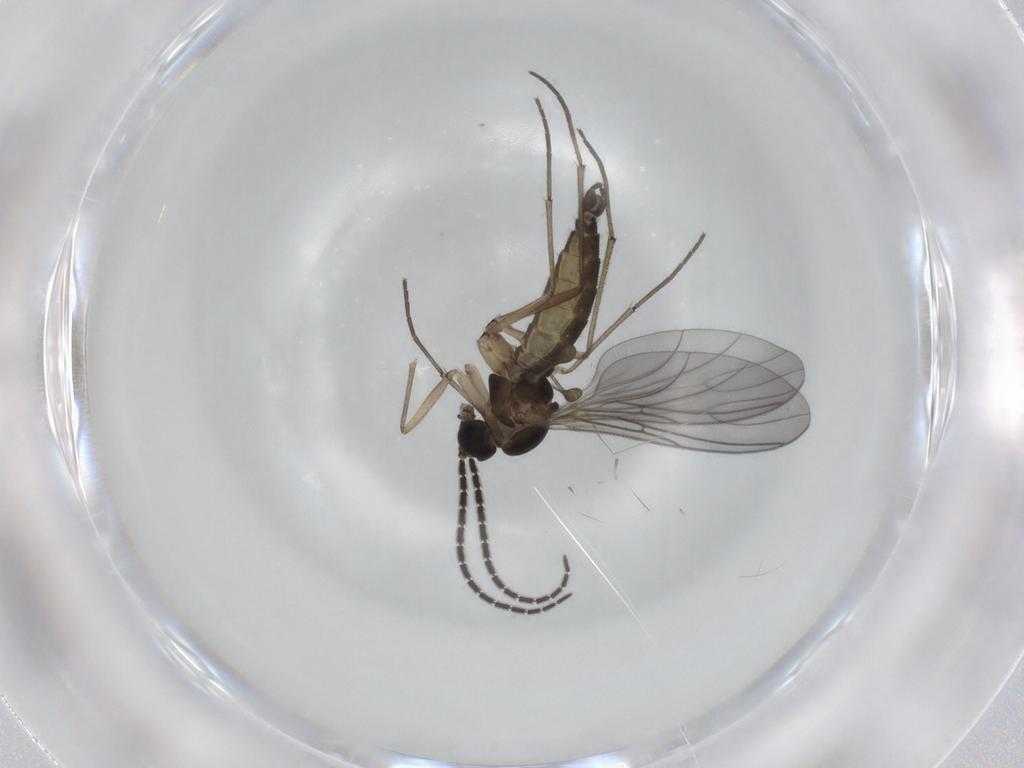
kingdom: Animalia
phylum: Arthropoda
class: Insecta
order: Diptera
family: Sciaridae
